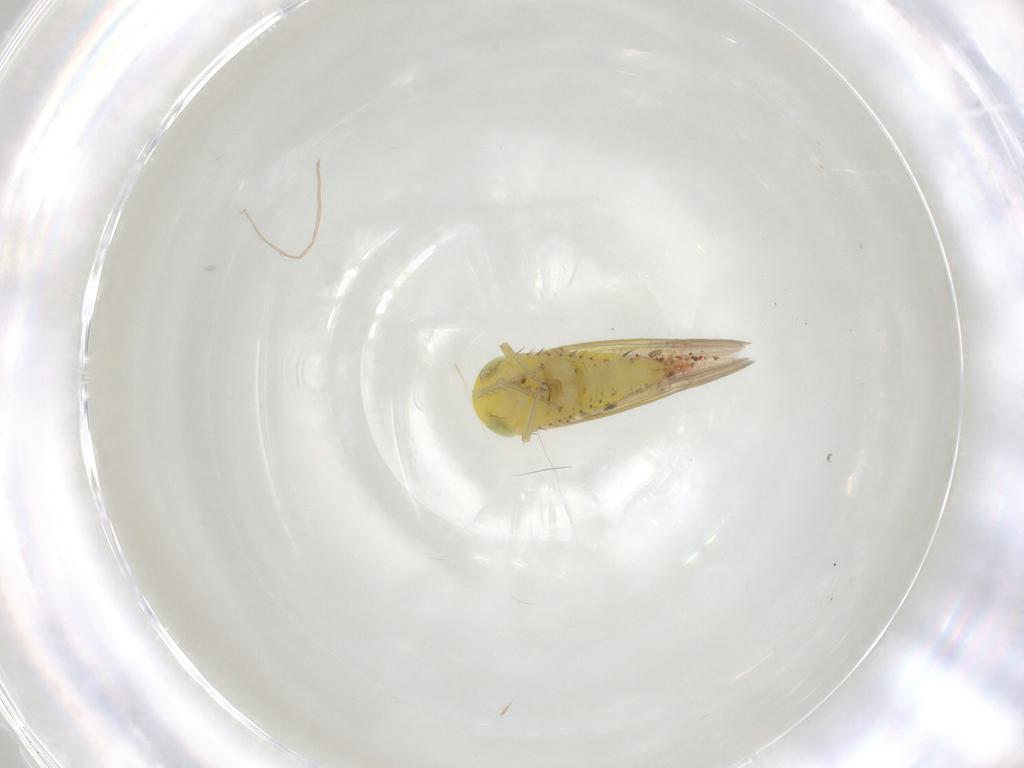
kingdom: Animalia
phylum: Arthropoda
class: Insecta
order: Hemiptera
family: Cicadellidae
